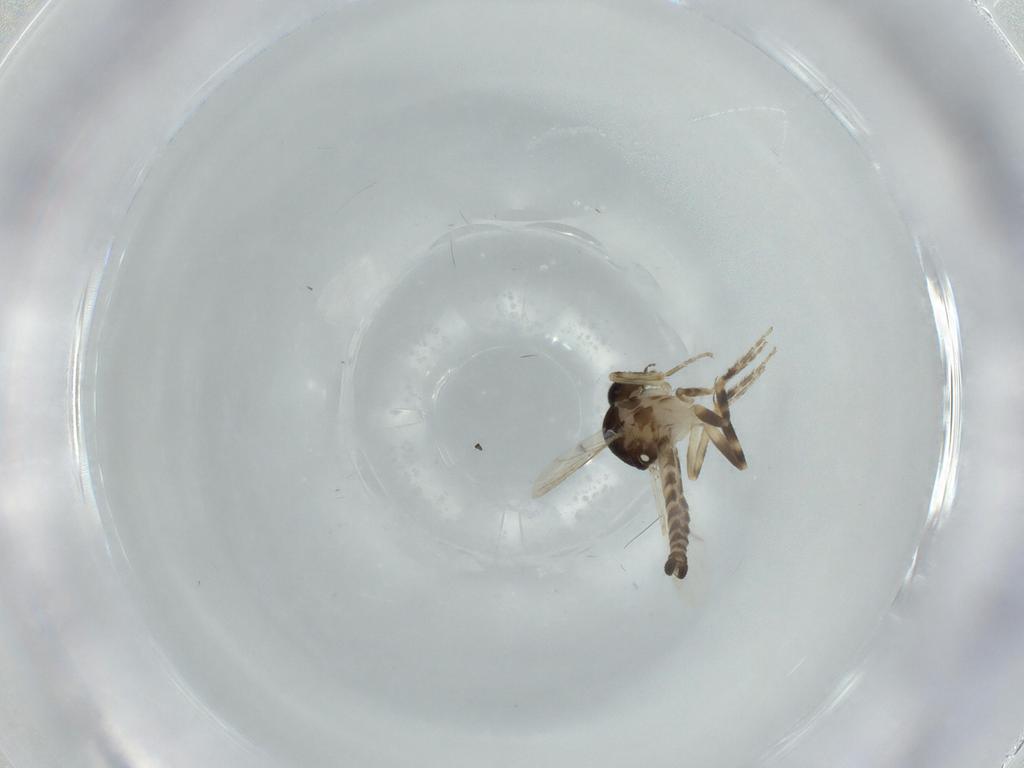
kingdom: Animalia
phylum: Arthropoda
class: Insecta
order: Diptera
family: Ceratopogonidae
